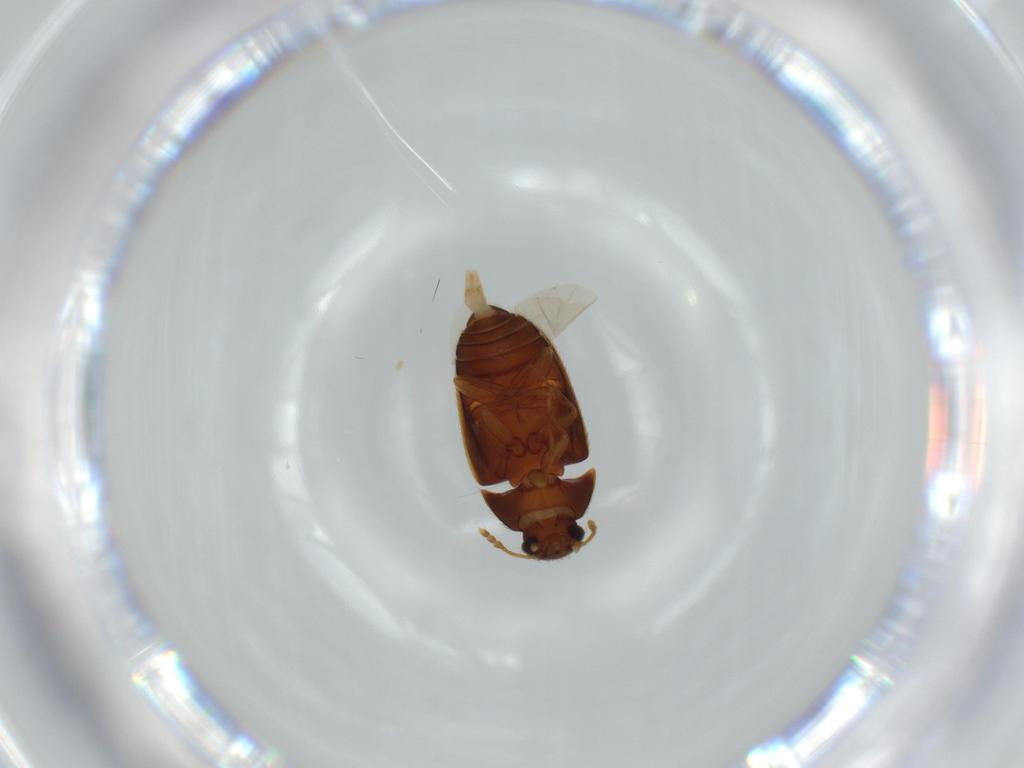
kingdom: Animalia
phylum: Arthropoda
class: Insecta
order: Coleoptera
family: Mycetophagidae
